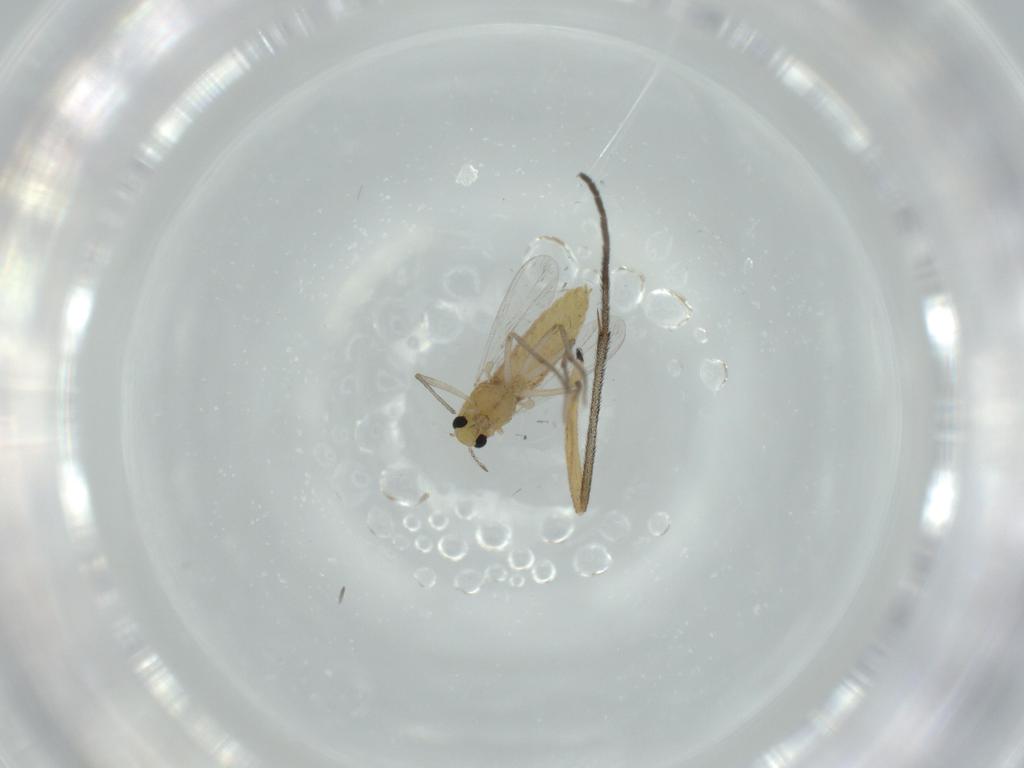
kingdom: Animalia
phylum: Arthropoda
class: Insecta
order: Diptera
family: Chironomidae
